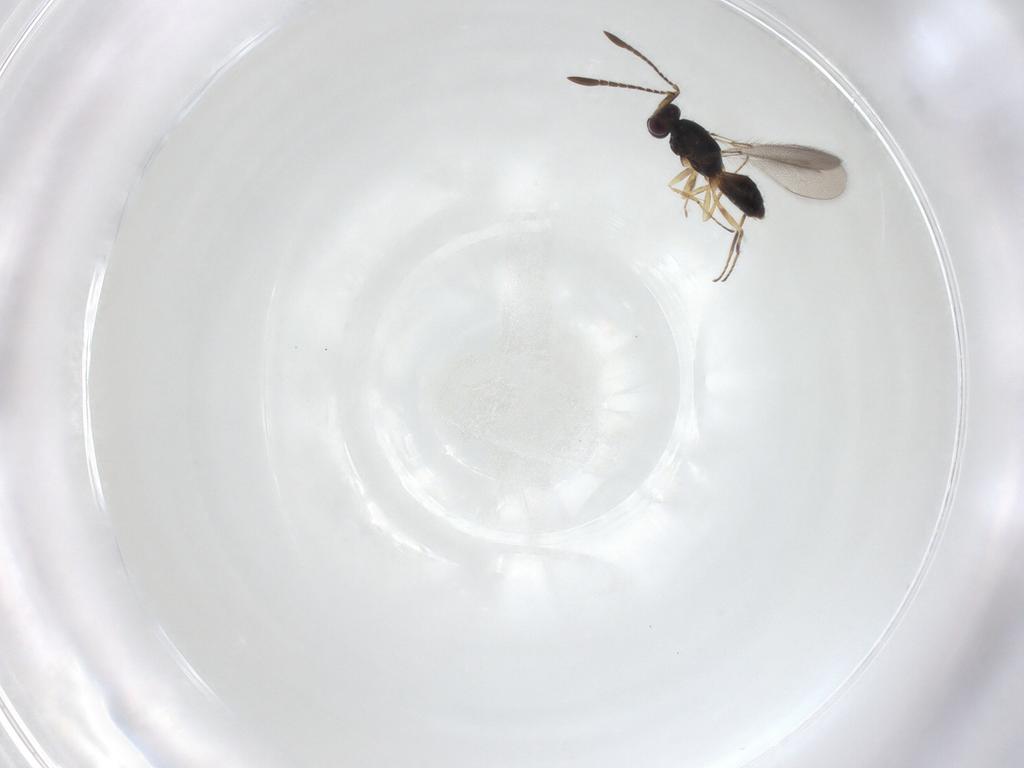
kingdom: Animalia
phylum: Arthropoda
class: Insecta
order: Hymenoptera
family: Mymaridae
